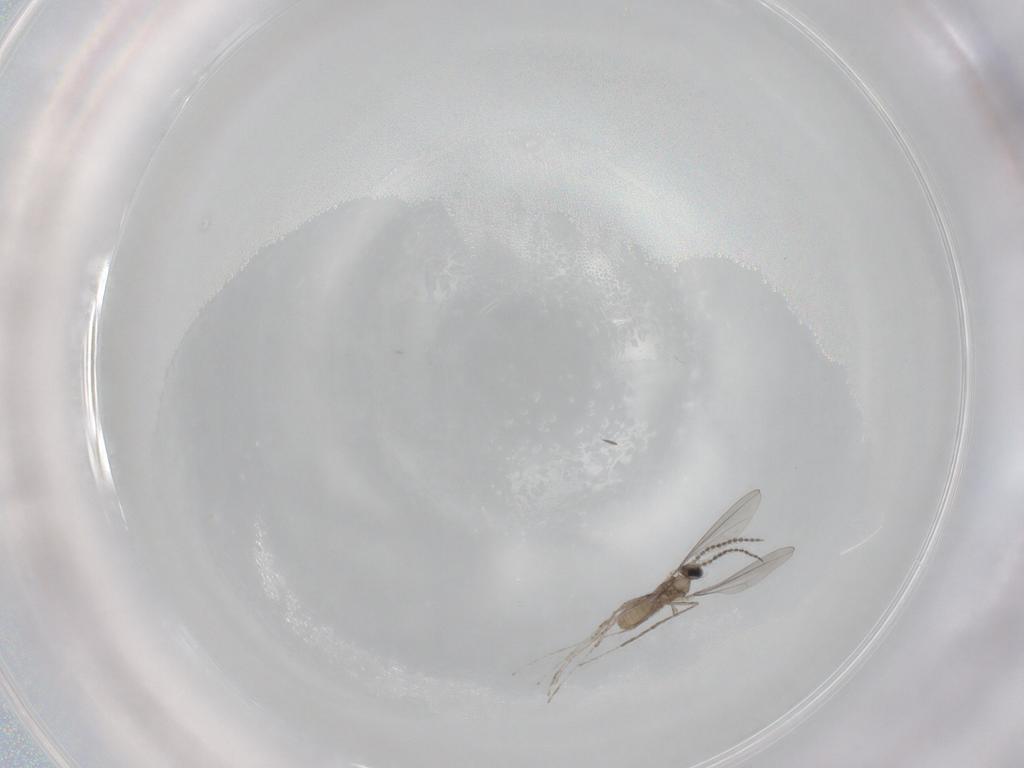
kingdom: Animalia
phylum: Arthropoda
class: Insecta
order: Diptera
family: Cecidomyiidae
